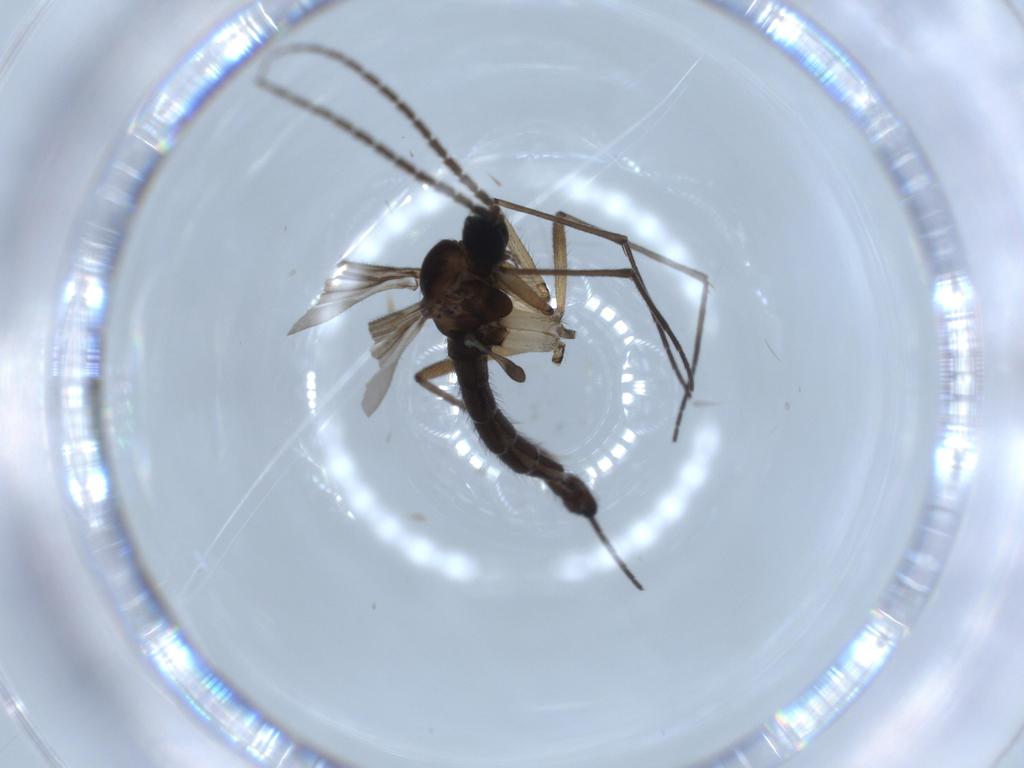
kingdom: Animalia
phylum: Arthropoda
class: Insecta
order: Diptera
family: Sciaridae
